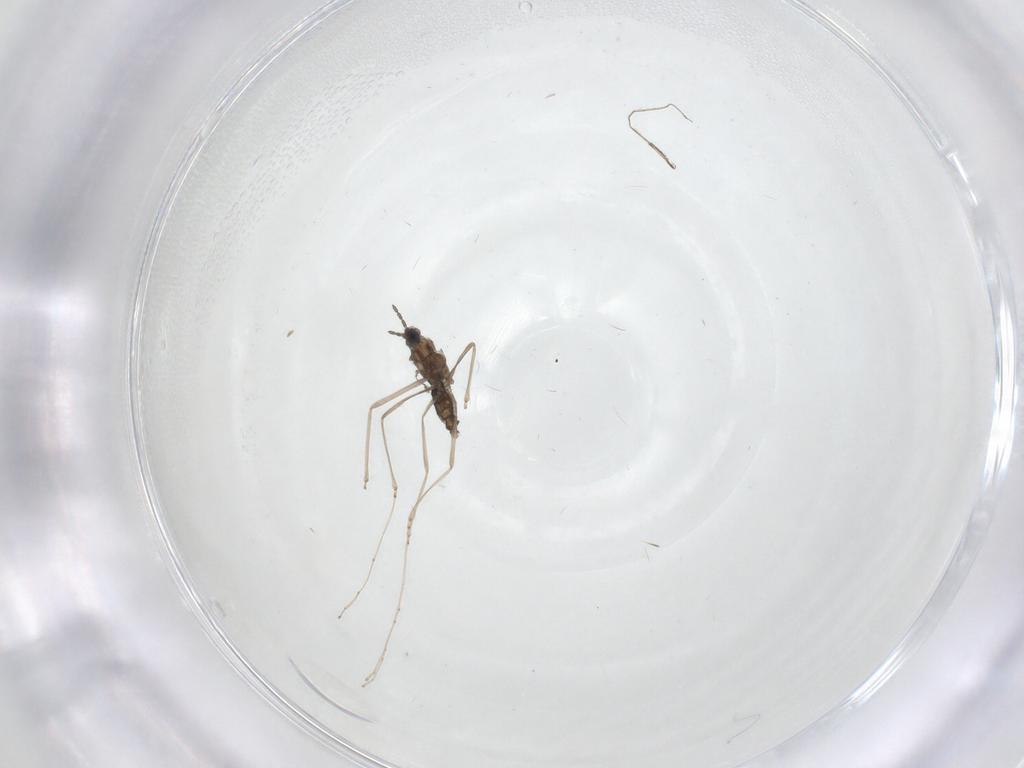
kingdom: Animalia
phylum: Arthropoda
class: Insecta
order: Diptera
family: Cecidomyiidae
